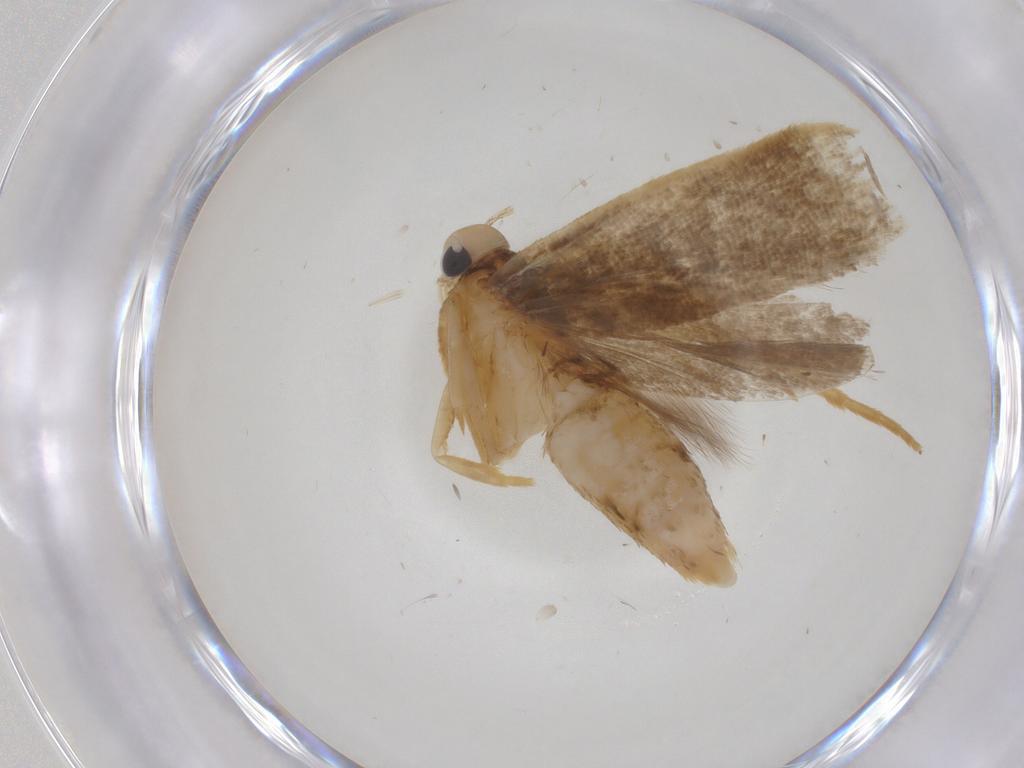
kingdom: Animalia
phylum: Arthropoda
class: Insecta
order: Lepidoptera
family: Gelechiidae
